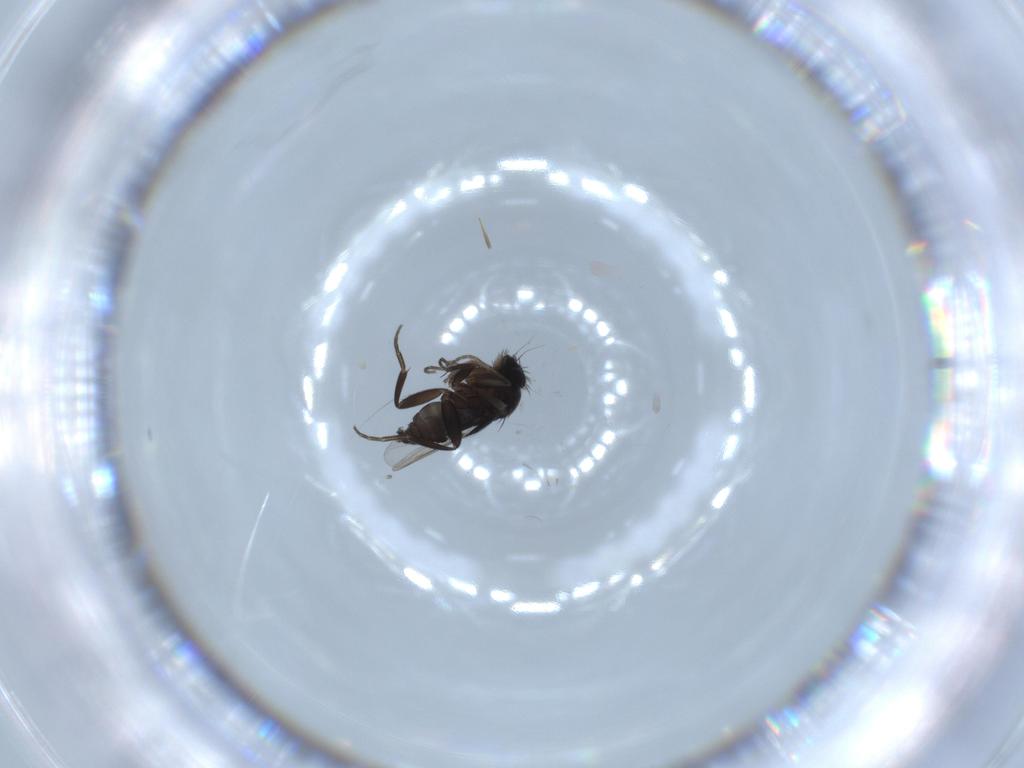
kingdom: Animalia
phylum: Arthropoda
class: Insecta
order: Diptera
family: Phoridae
